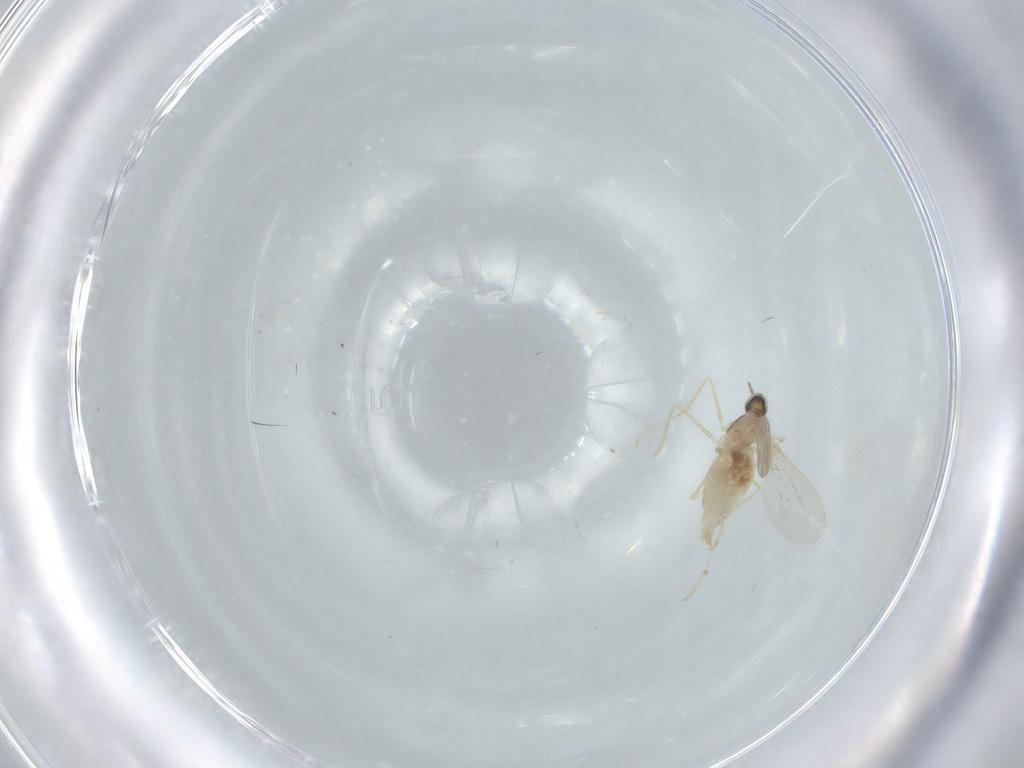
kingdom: Animalia
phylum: Arthropoda
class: Insecta
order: Diptera
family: Cecidomyiidae
